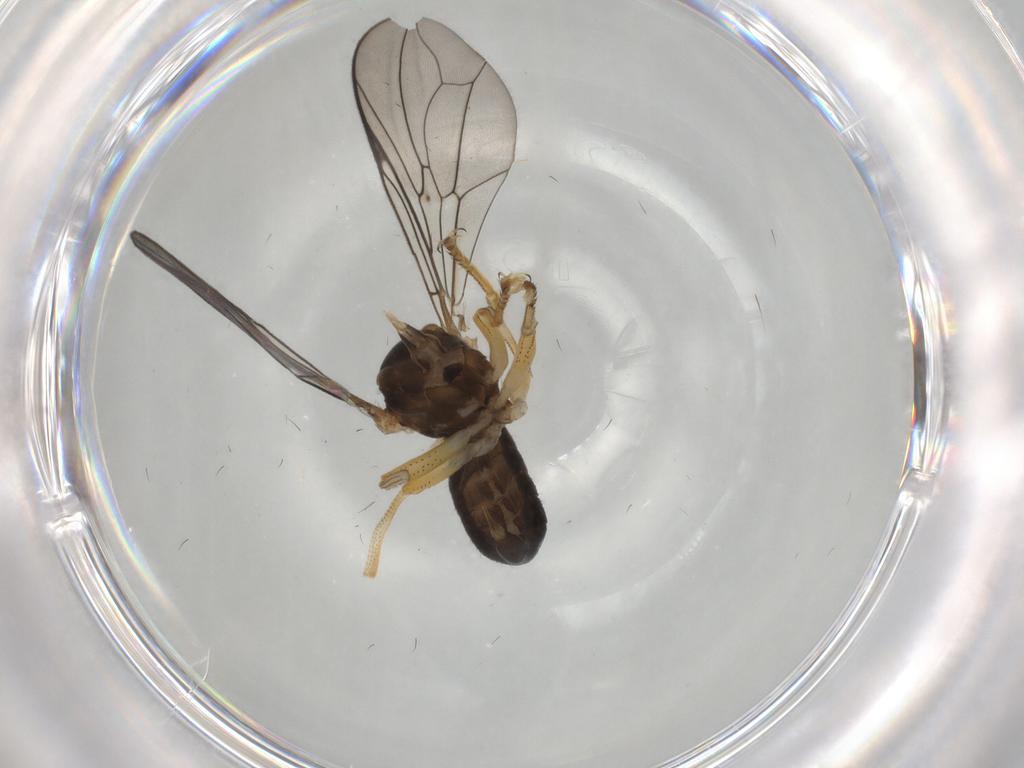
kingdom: Animalia
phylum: Arthropoda
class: Insecta
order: Diptera
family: Pipunculidae
